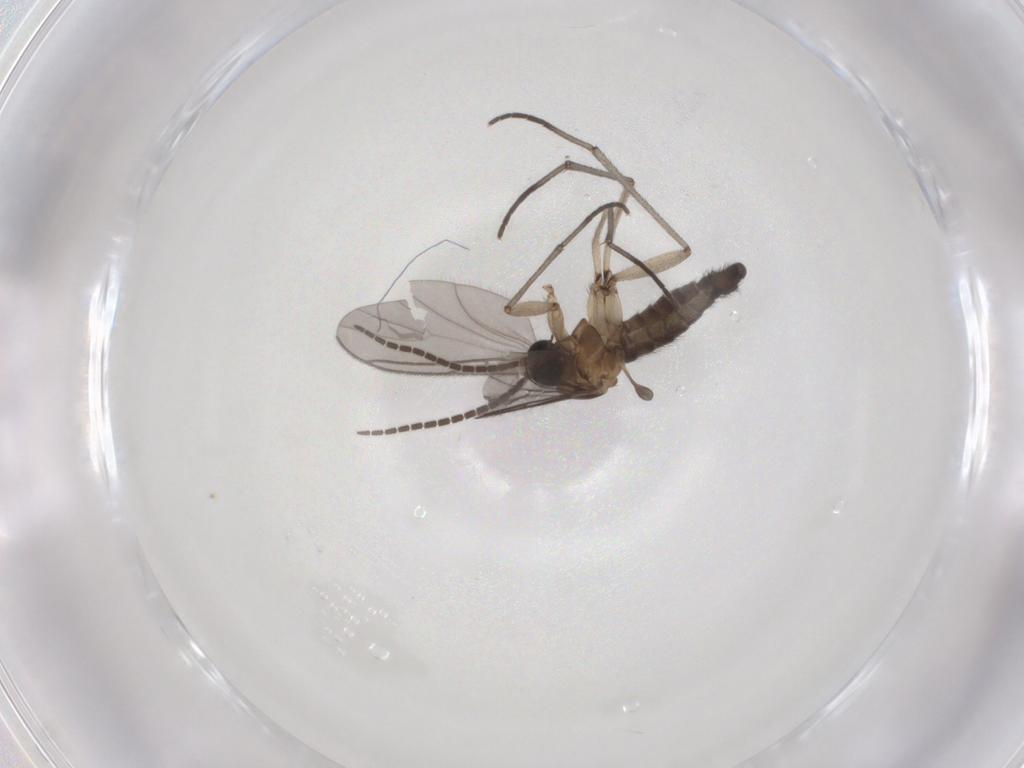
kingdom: Animalia
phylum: Arthropoda
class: Insecta
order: Diptera
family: Sciaridae
